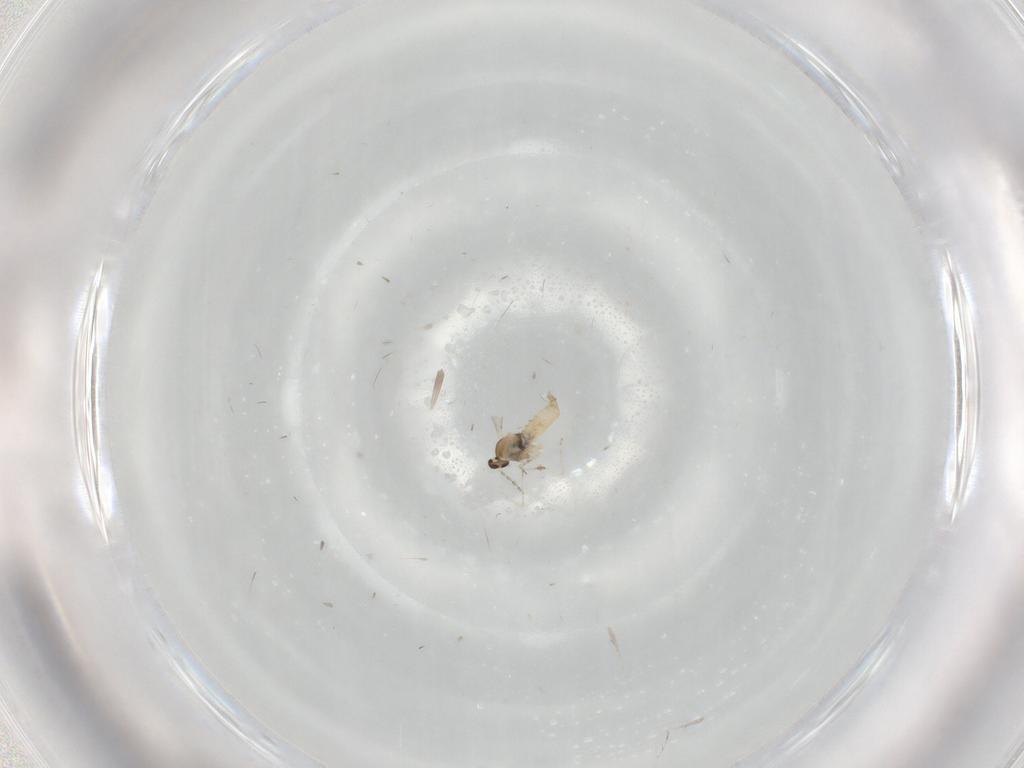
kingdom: Animalia
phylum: Arthropoda
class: Insecta
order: Diptera
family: Cecidomyiidae
